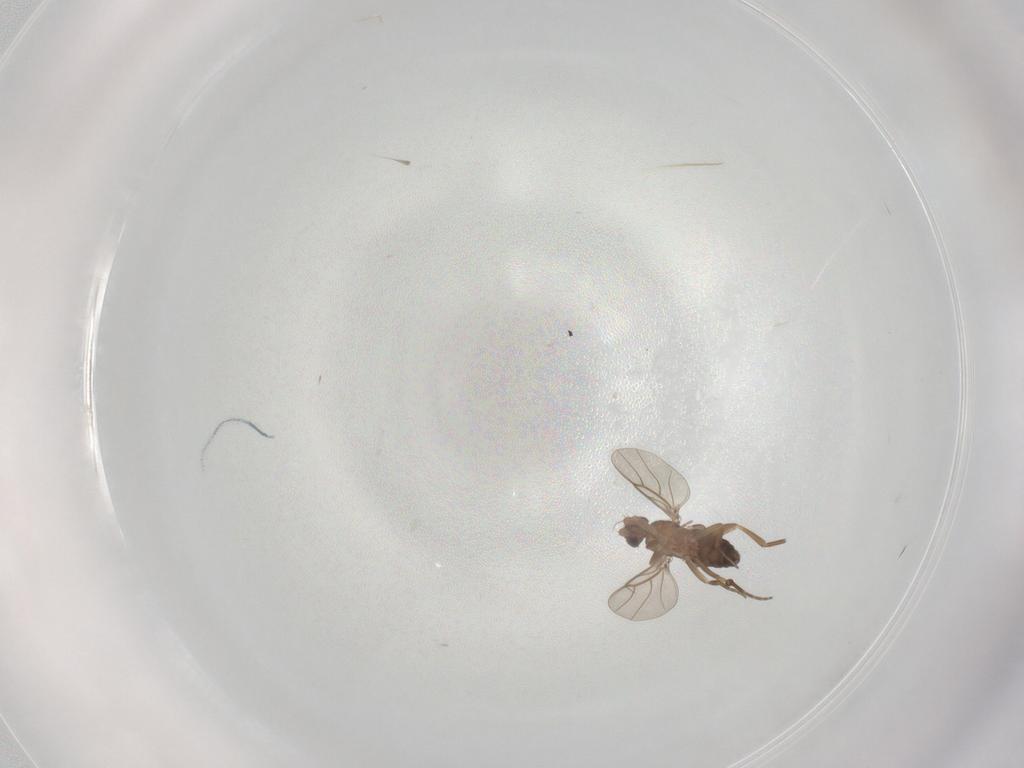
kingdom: Animalia
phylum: Arthropoda
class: Insecta
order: Diptera
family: Phoridae
